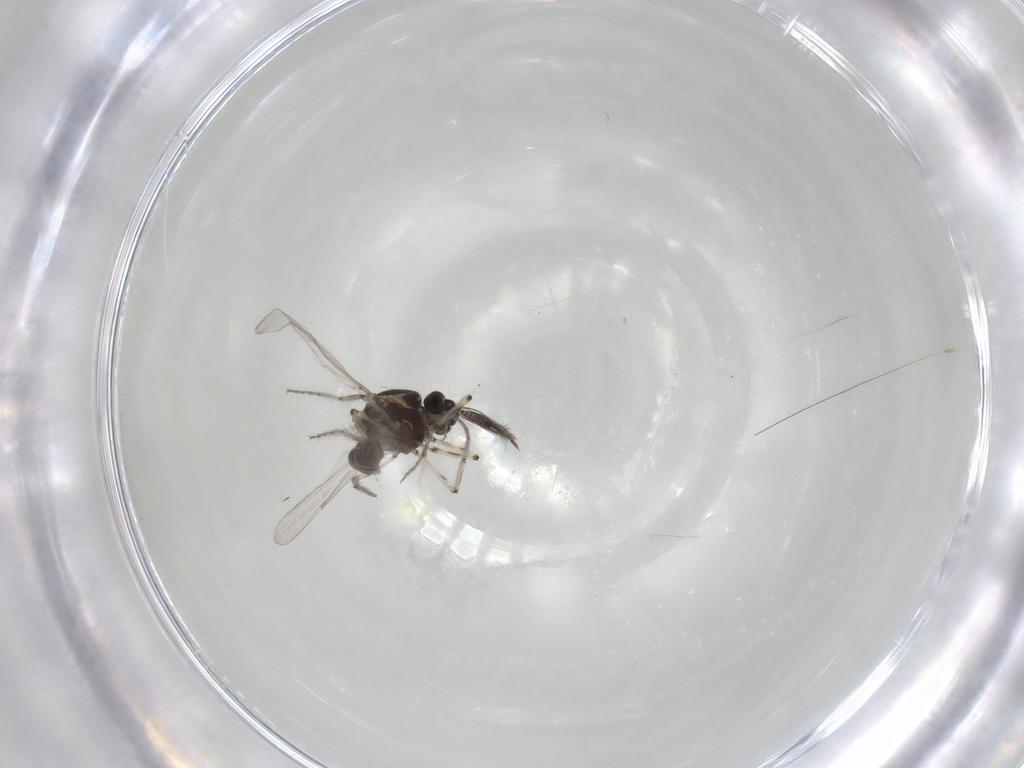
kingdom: Animalia
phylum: Arthropoda
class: Insecta
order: Diptera
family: Ceratopogonidae
